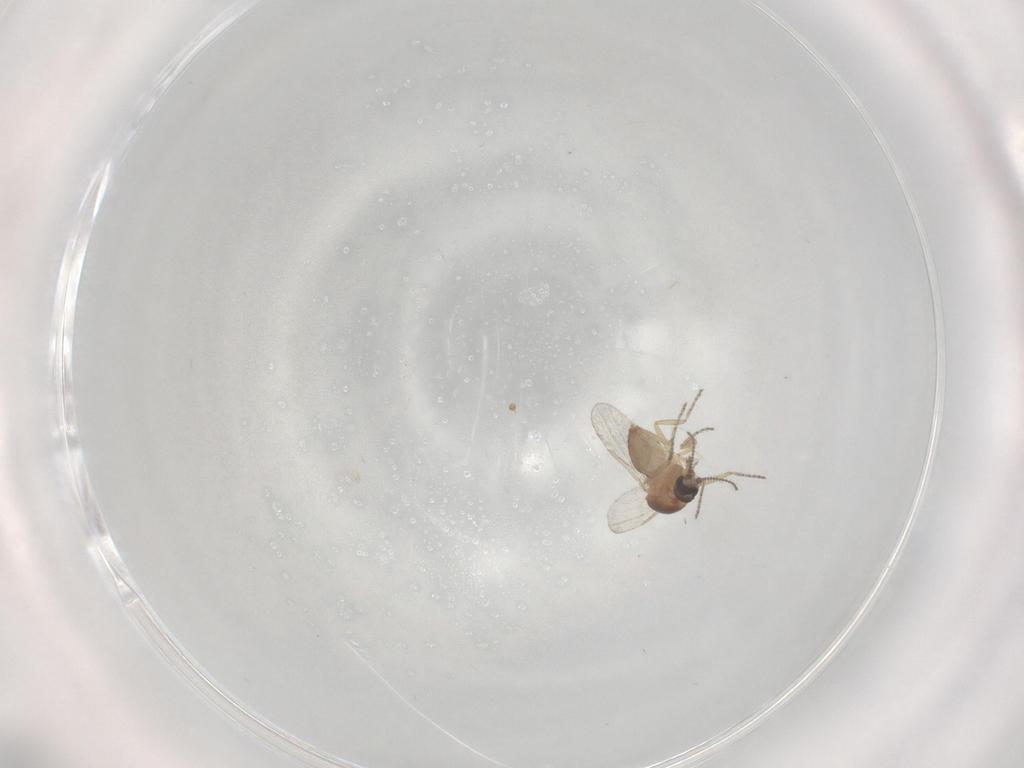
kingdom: Animalia
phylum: Arthropoda
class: Insecta
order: Diptera
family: Ceratopogonidae
